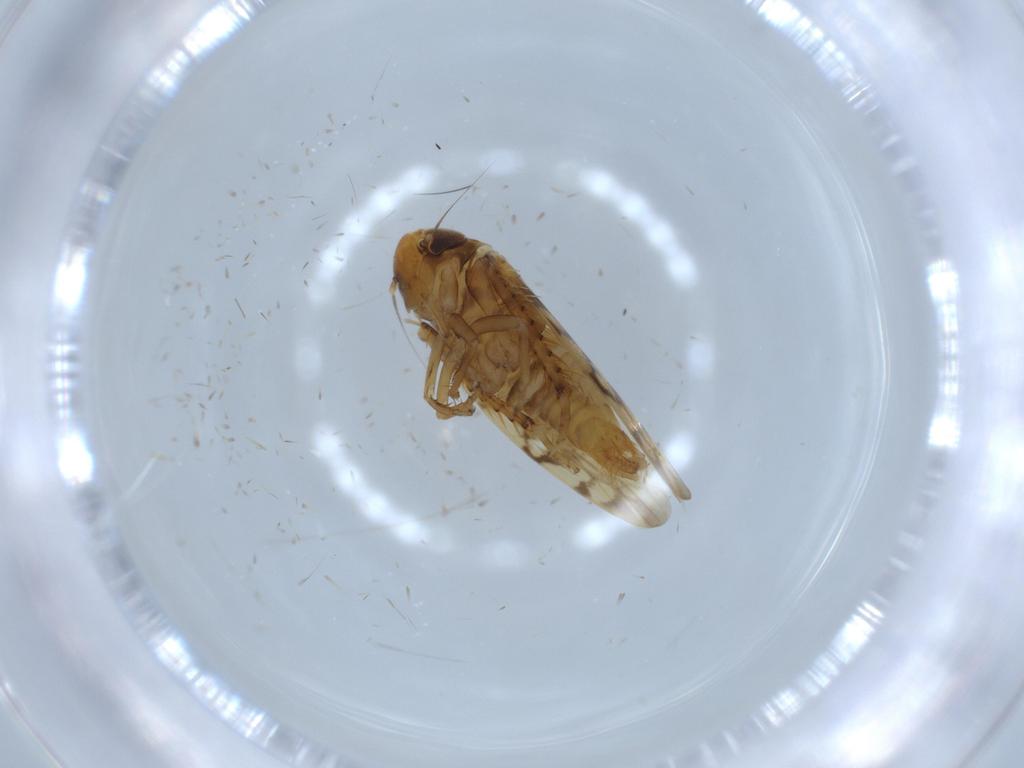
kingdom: Animalia
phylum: Arthropoda
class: Insecta
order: Hemiptera
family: Cicadellidae
